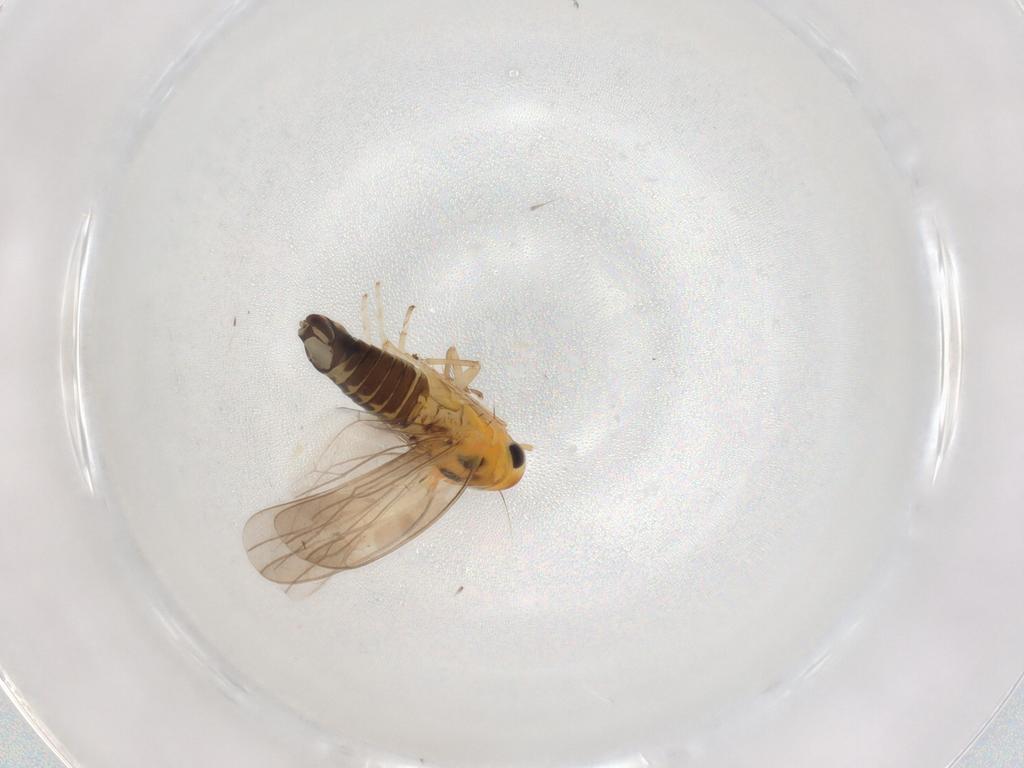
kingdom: Animalia
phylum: Arthropoda
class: Insecta
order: Hemiptera
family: Cicadellidae
